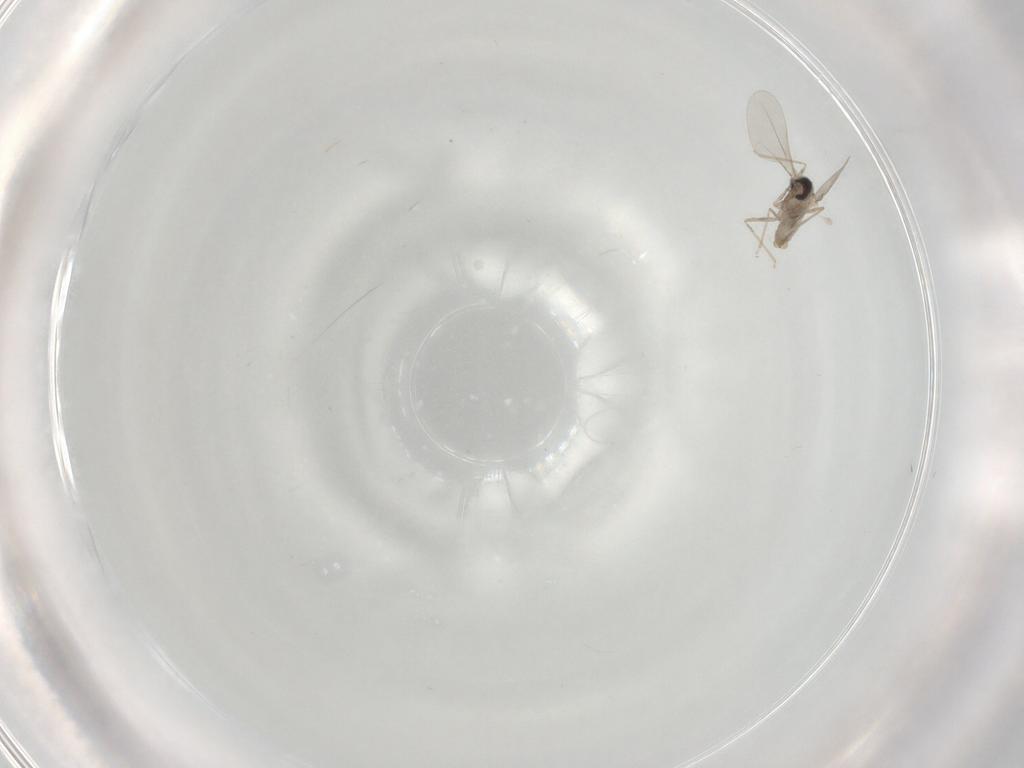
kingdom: Animalia
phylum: Arthropoda
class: Insecta
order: Diptera
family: Cecidomyiidae
